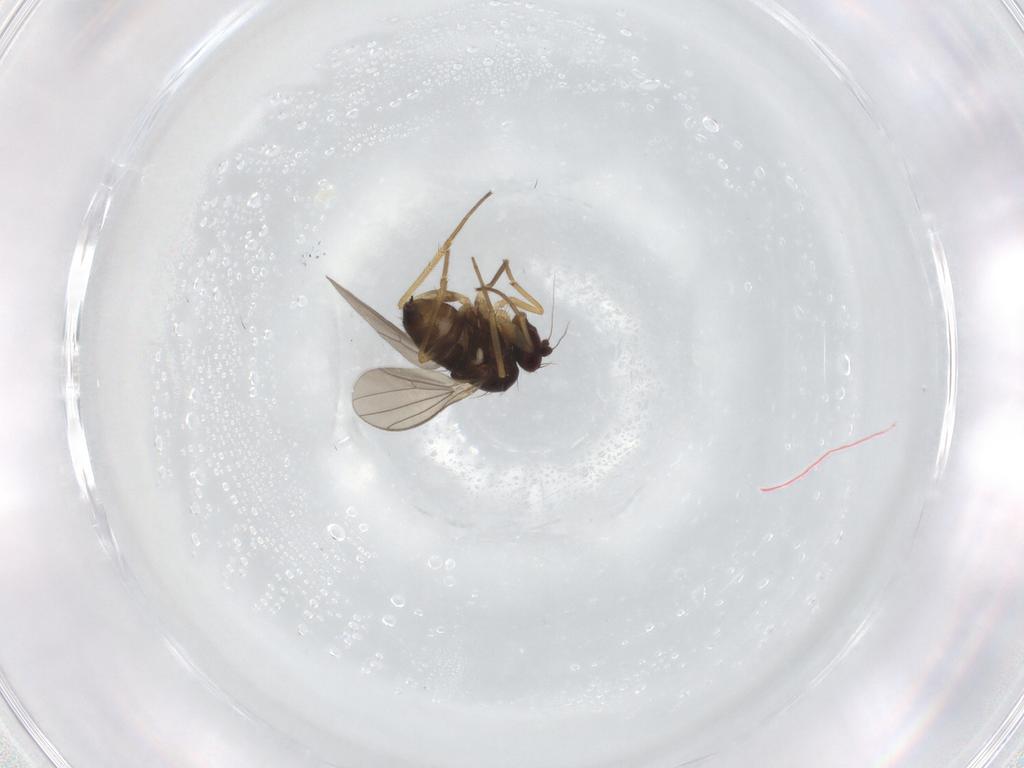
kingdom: Animalia
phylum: Arthropoda
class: Insecta
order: Diptera
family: Dolichopodidae
